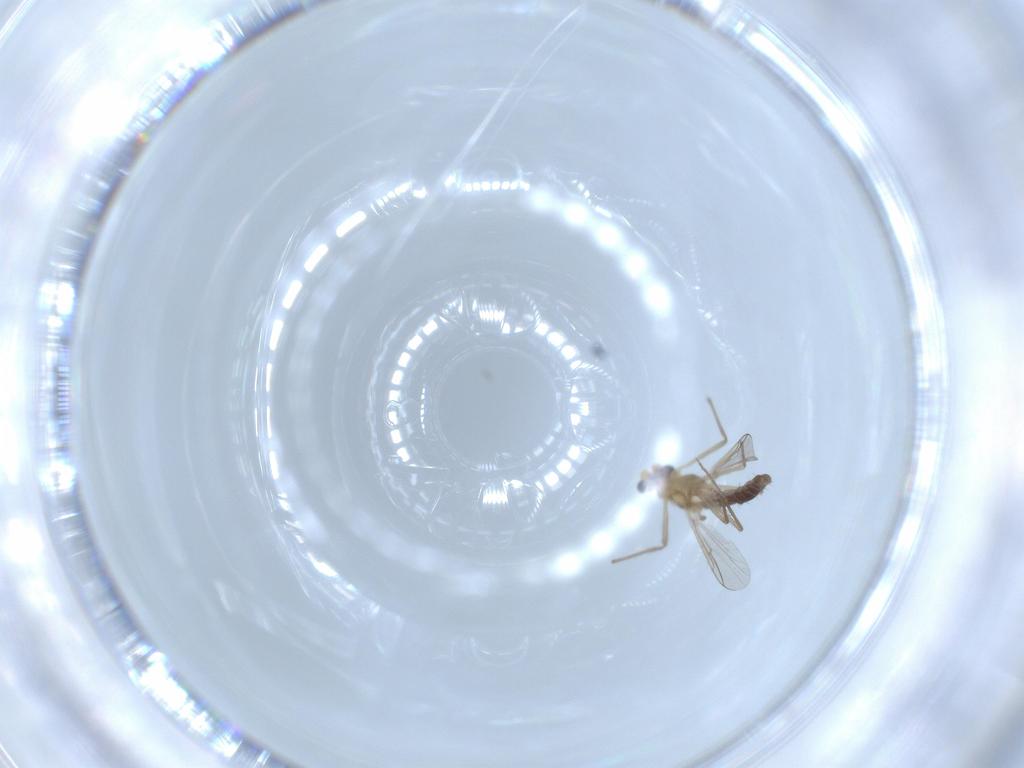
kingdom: Animalia
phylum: Arthropoda
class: Insecta
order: Diptera
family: Chironomidae
